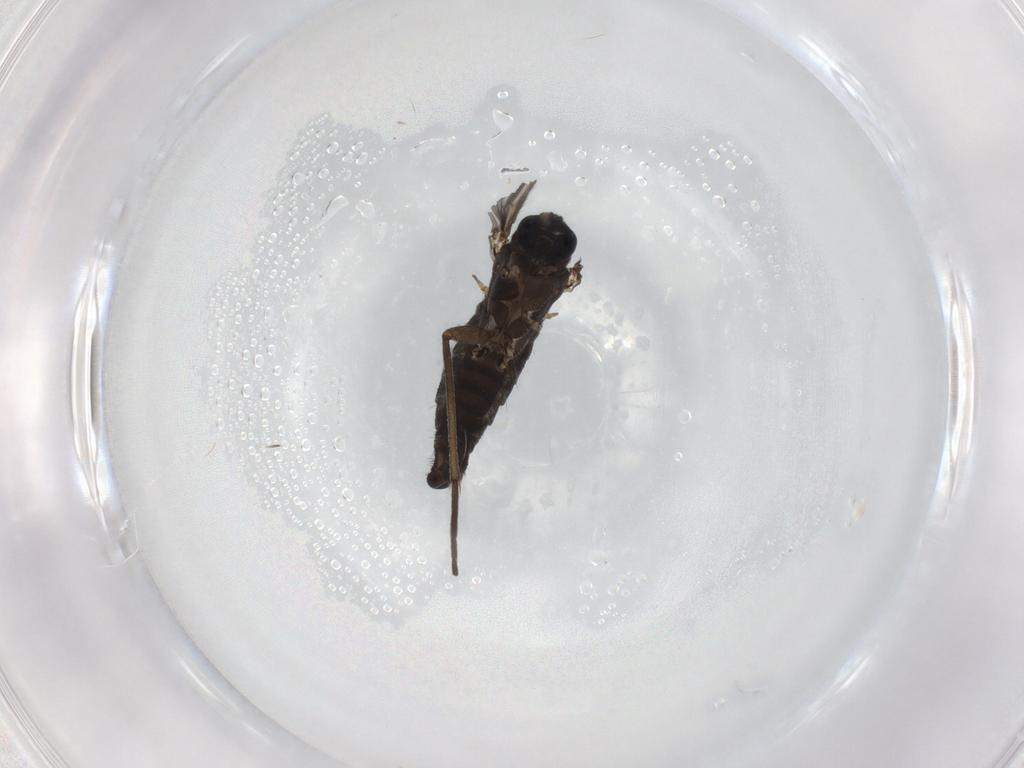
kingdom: Animalia
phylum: Arthropoda
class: Insecta
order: Diptera
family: Sciaridae
